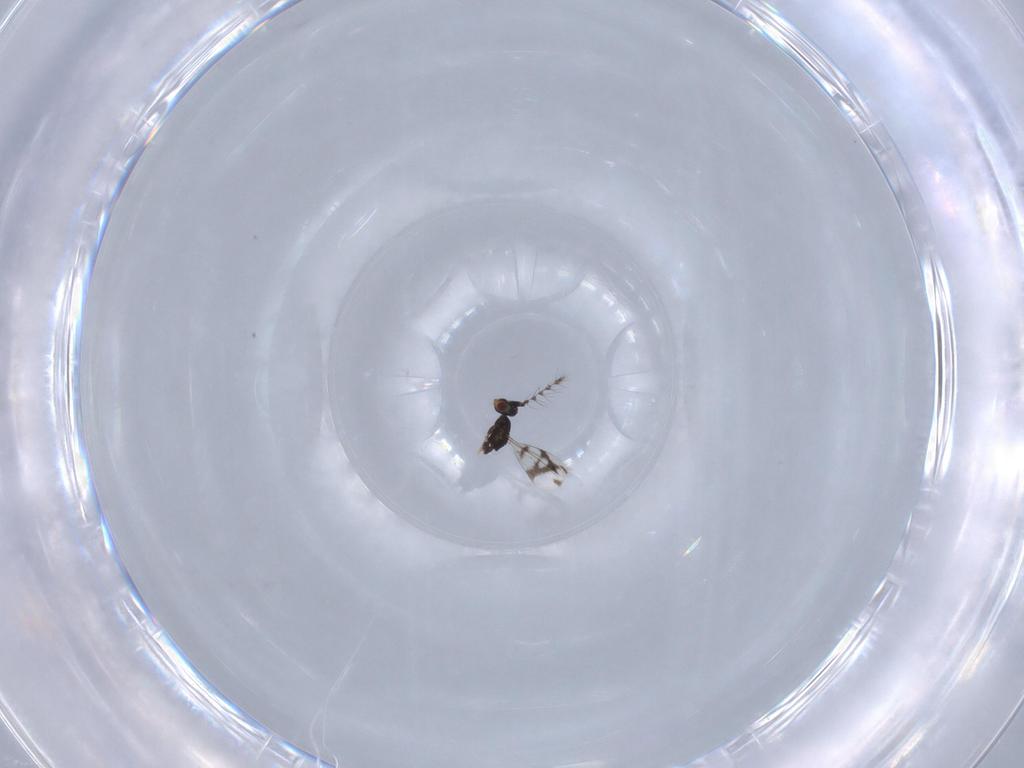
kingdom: Animalia
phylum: Arthropoda
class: Insecta
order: Hymenoptera
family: Eulophidae
